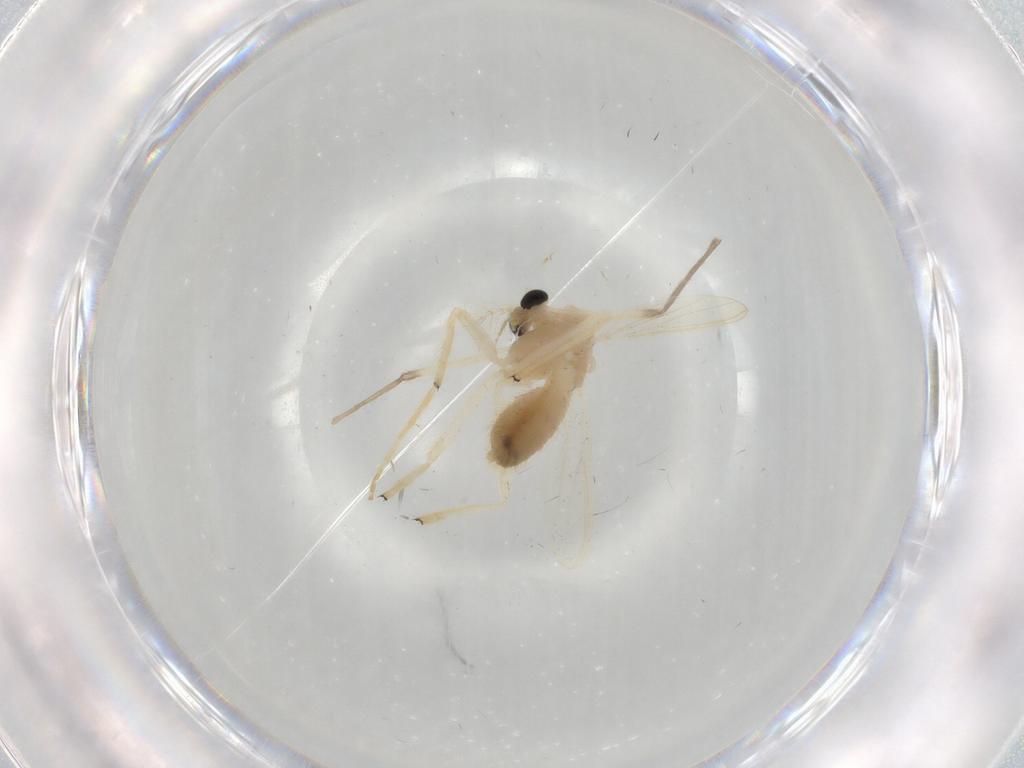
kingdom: Animalia
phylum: Arthropoda
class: Insecta
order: Diptera
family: Chironomidae
